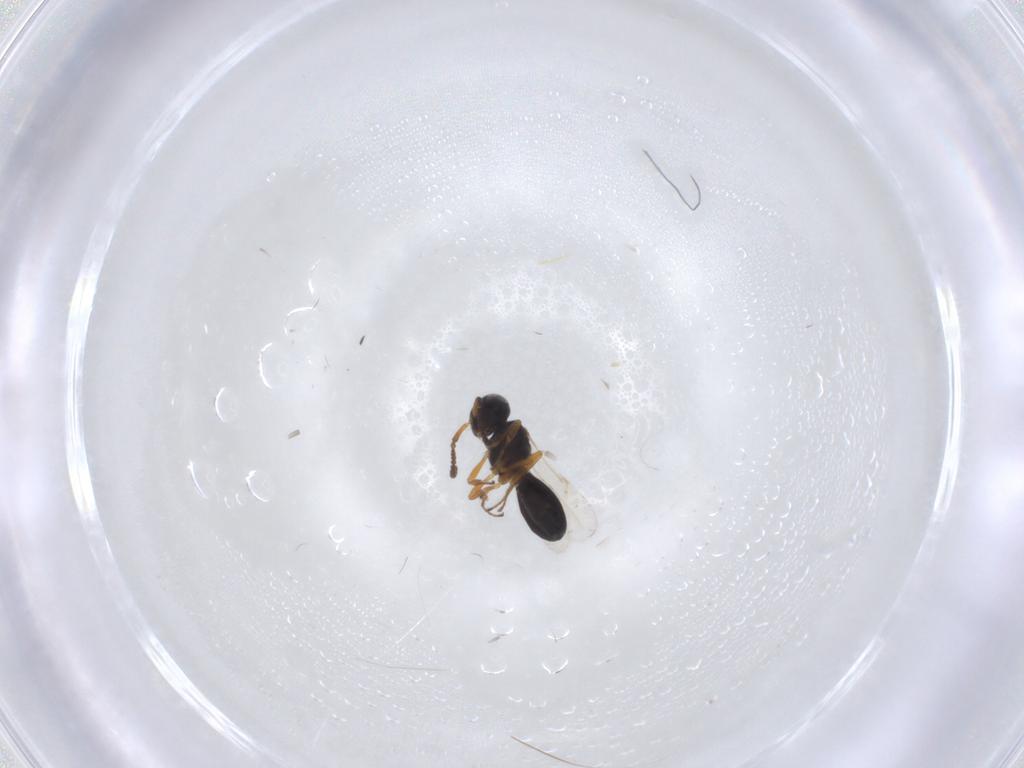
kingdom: Animalia
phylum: Arthropoda
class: Insecta
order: Hymenoptera
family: Scelionidae
